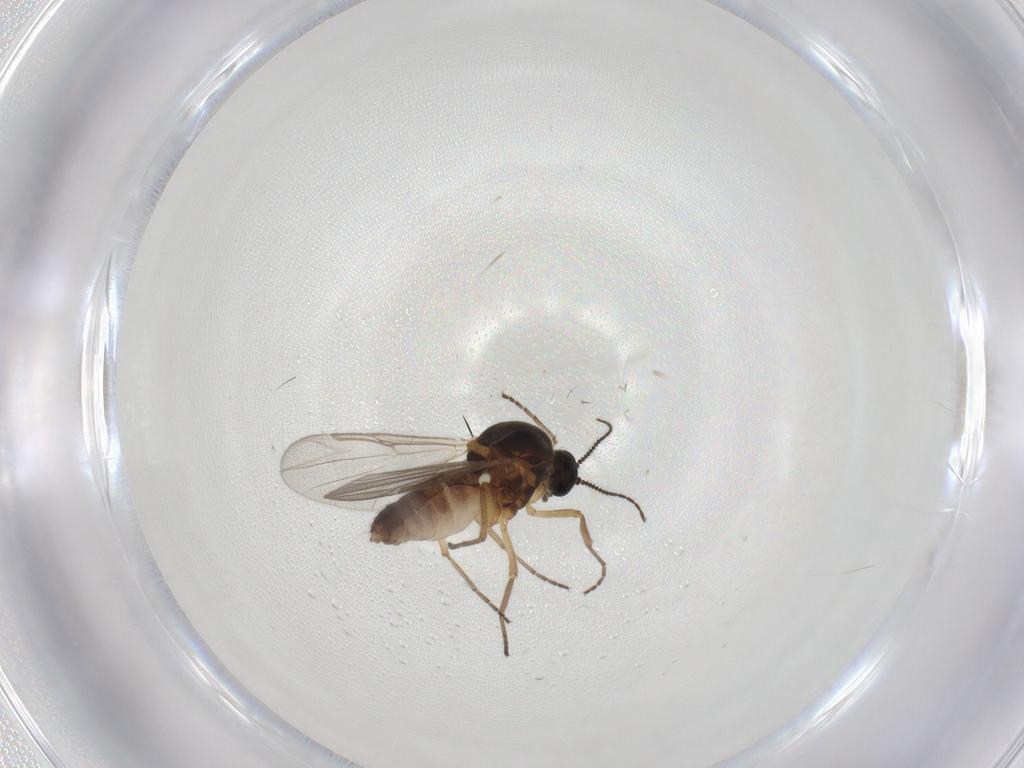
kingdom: Animalia
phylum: Arthropoda
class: Insecta
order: Diptera
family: Ceratopogonidae
